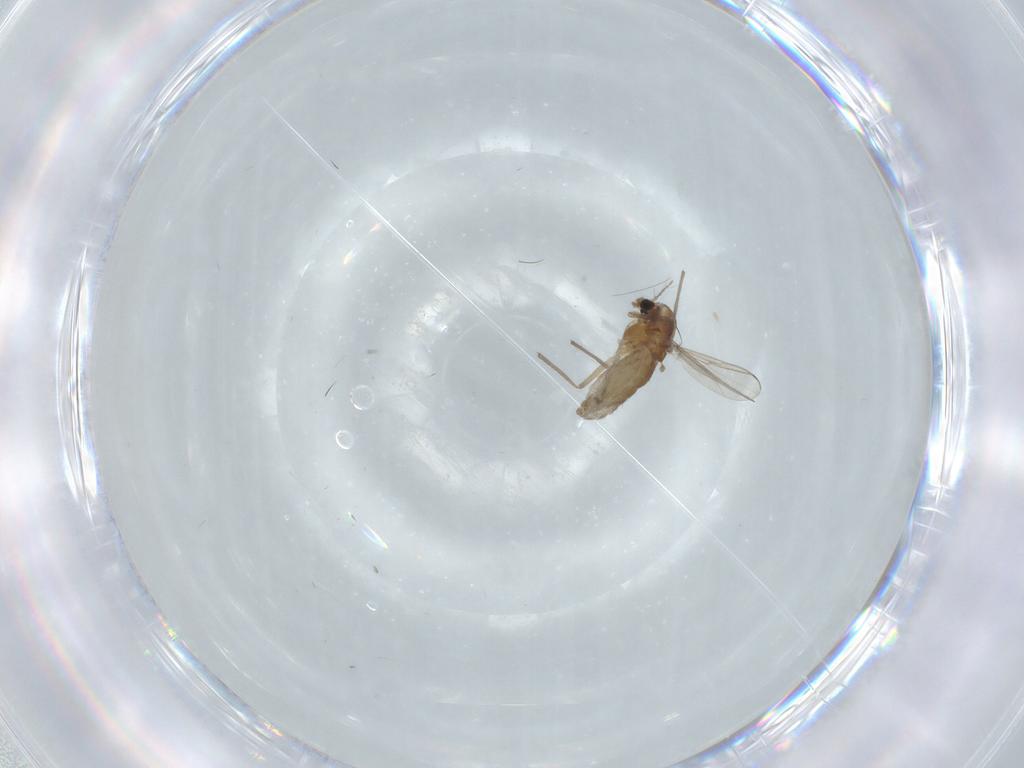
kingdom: Animalia
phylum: Arthropoda
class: Insecta
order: Diptera
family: Chironomidae
